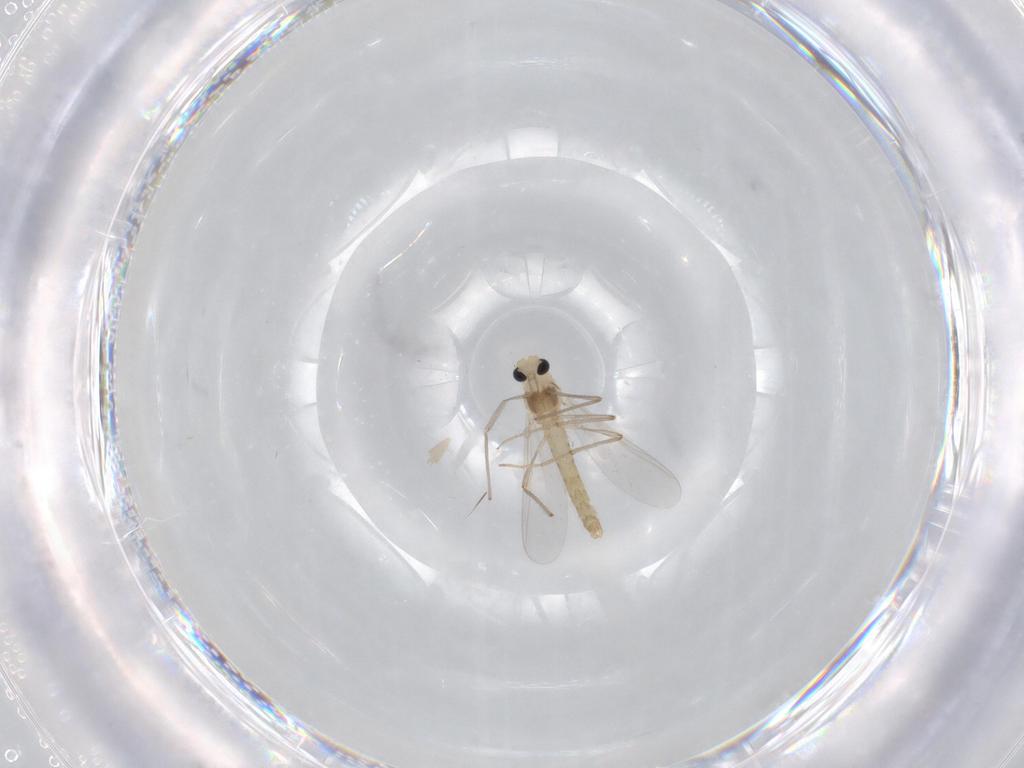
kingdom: Animalia
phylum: Arthropoda
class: Insecta
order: Diptera
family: Chironomidae
